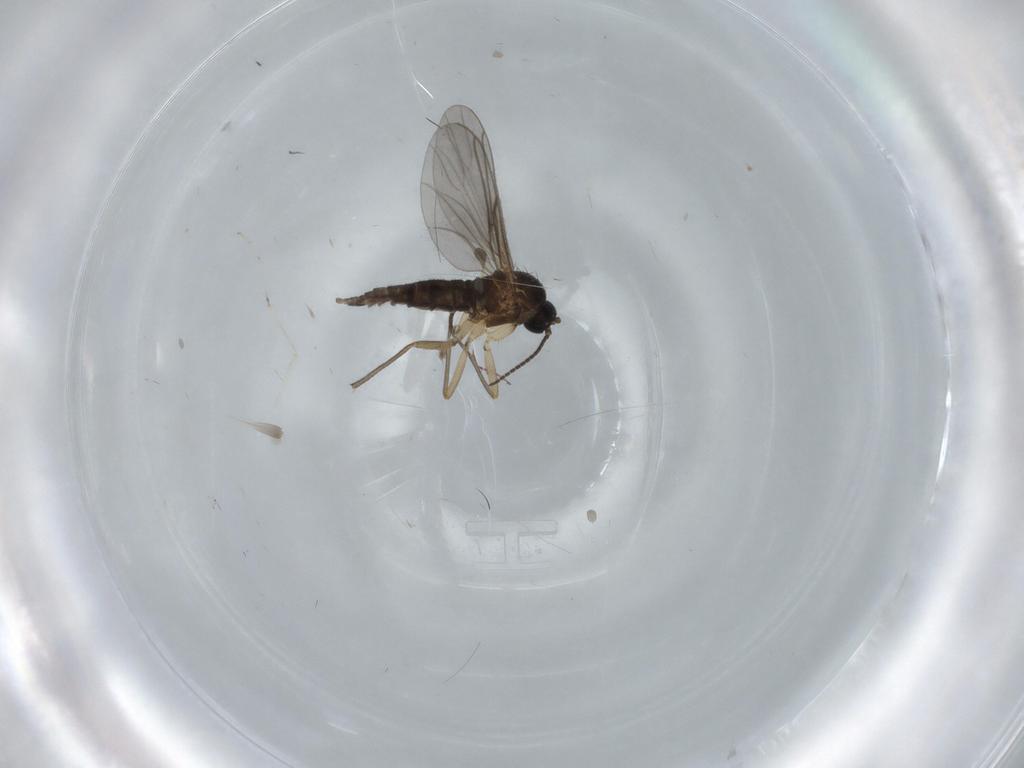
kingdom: Animalia
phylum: Arthropoda
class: Insecta
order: Diptera
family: Sciaridae
